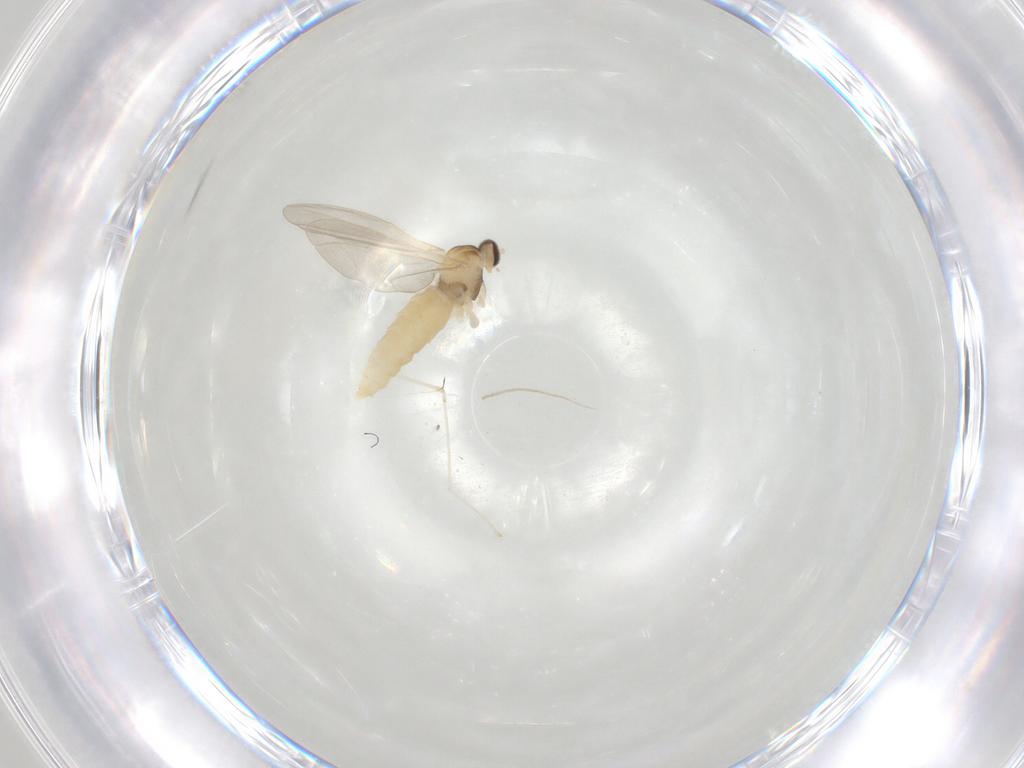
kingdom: Animalia
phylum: Arthropoda
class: Insecta
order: Diptera
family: Cecidomyiidae
